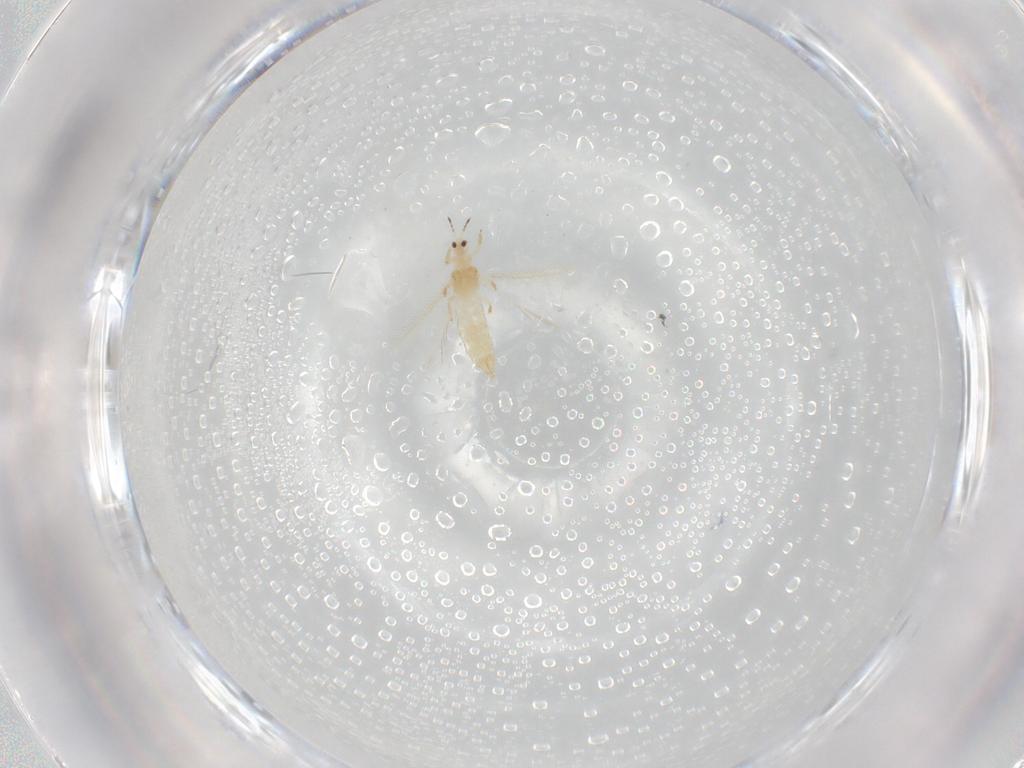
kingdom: Animalia
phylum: Arthropoda
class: Insecta
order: Thysanoptera
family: Thripidae
